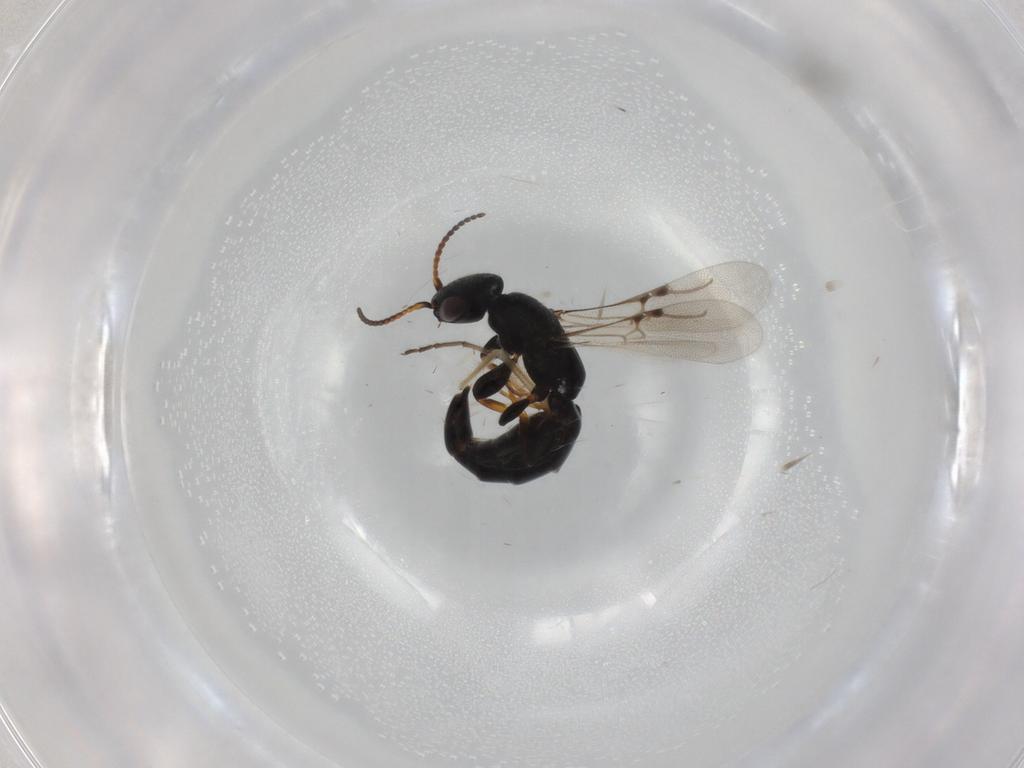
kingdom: Animalia
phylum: Arthropoda
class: Insecta
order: Hymenoptera
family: Bethylidae
